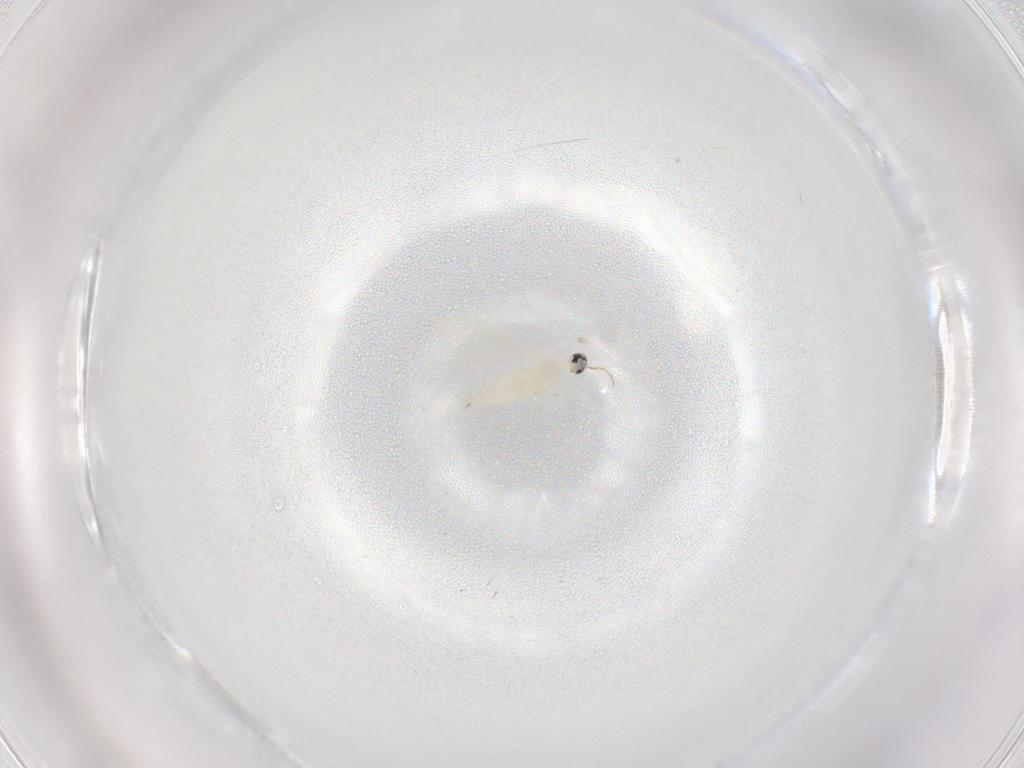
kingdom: Animalia
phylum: Arthropoda
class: Insecta
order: Diptera
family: Cecidomyiidae
